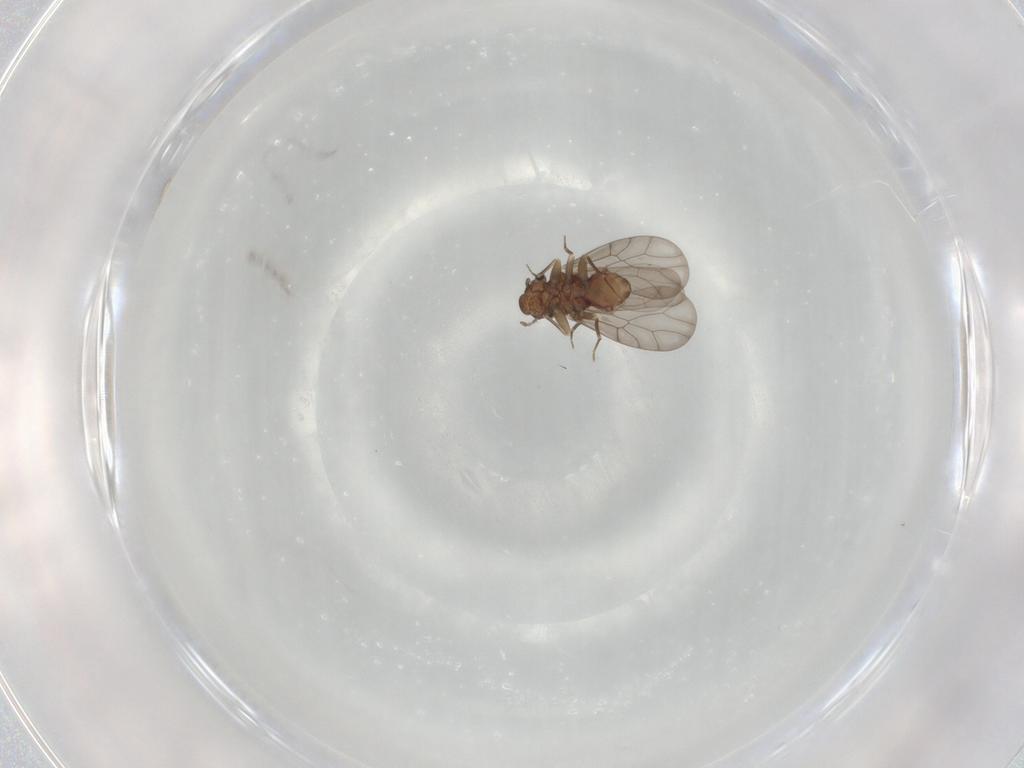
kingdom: Animalia
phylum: Arthropoda
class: Insecta
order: Psocodea
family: Lepidopsocidae
